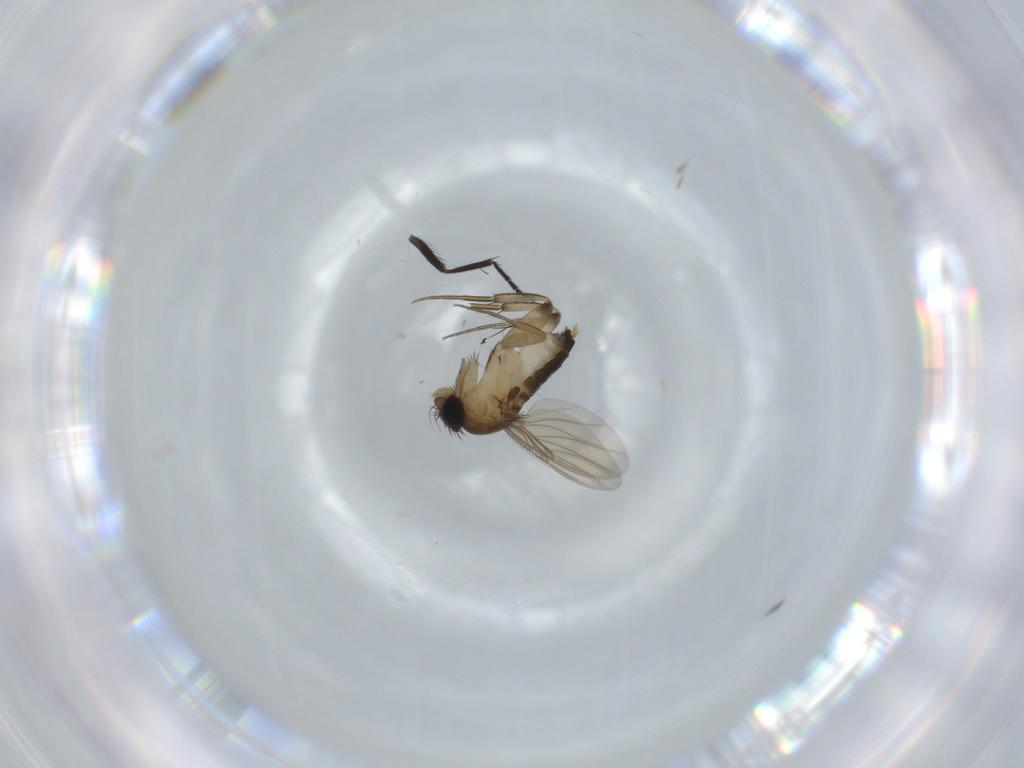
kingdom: Animalia
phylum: Arthropoda
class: Insecta
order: Diptera
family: Phoridae
